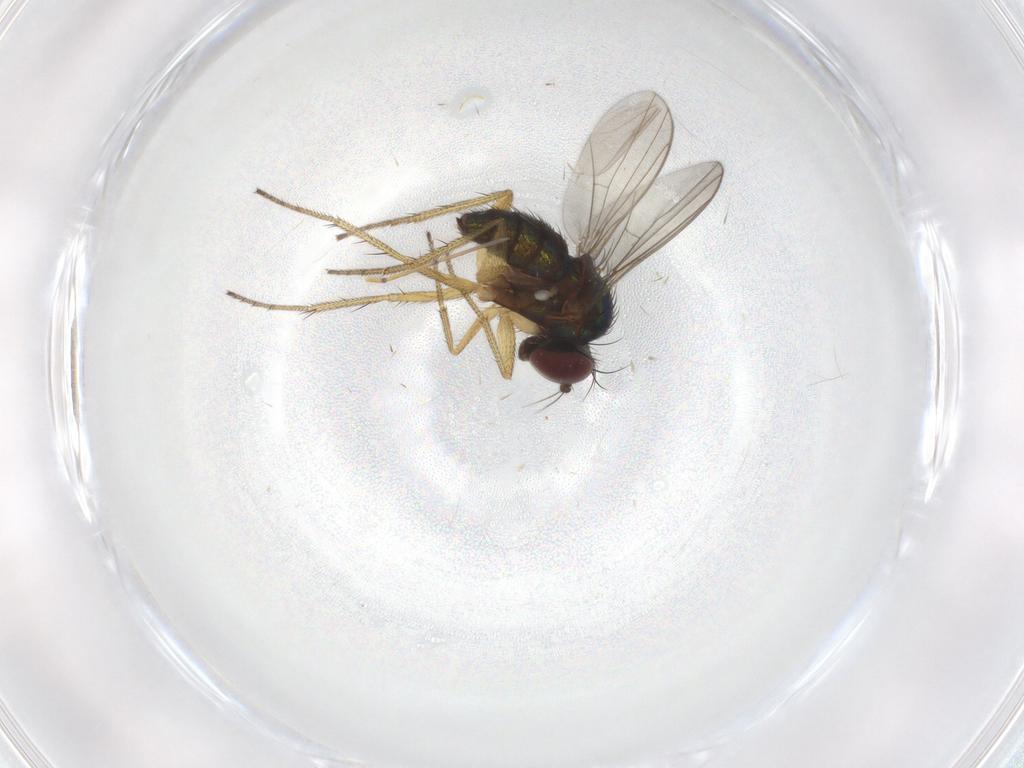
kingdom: Animalia
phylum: Arthropoda
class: Insecta
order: Diptera
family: Dolichopodidae
